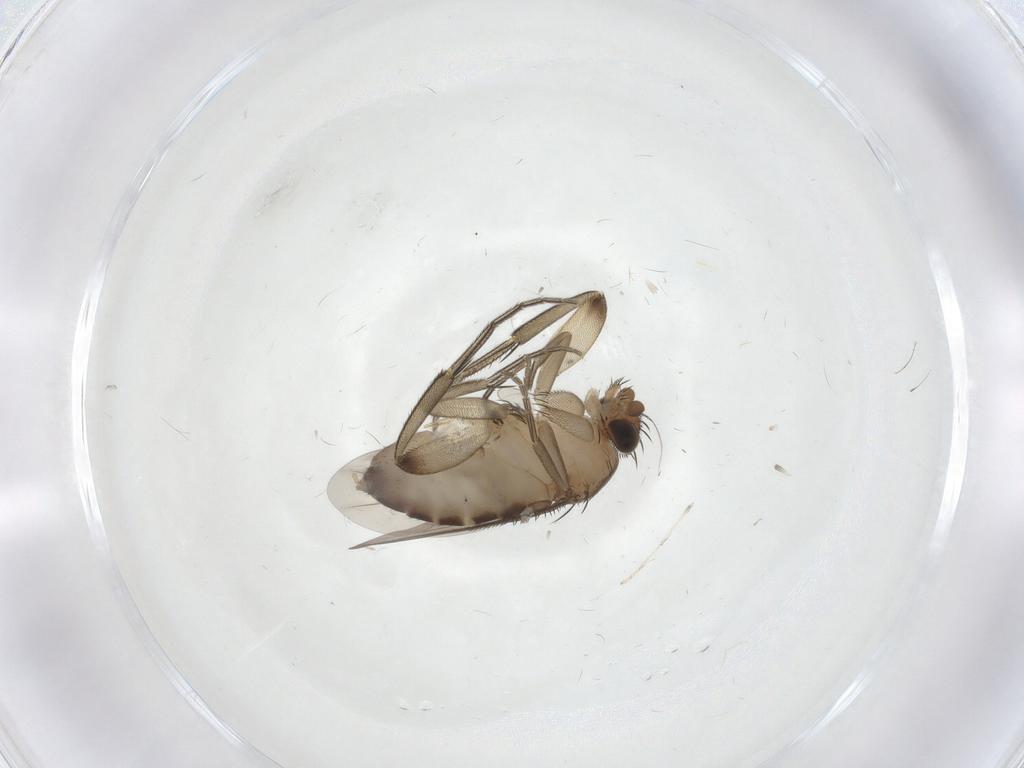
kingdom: Animalia
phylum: Arthropoda
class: Insecta
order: Diptera
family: Phoridae
